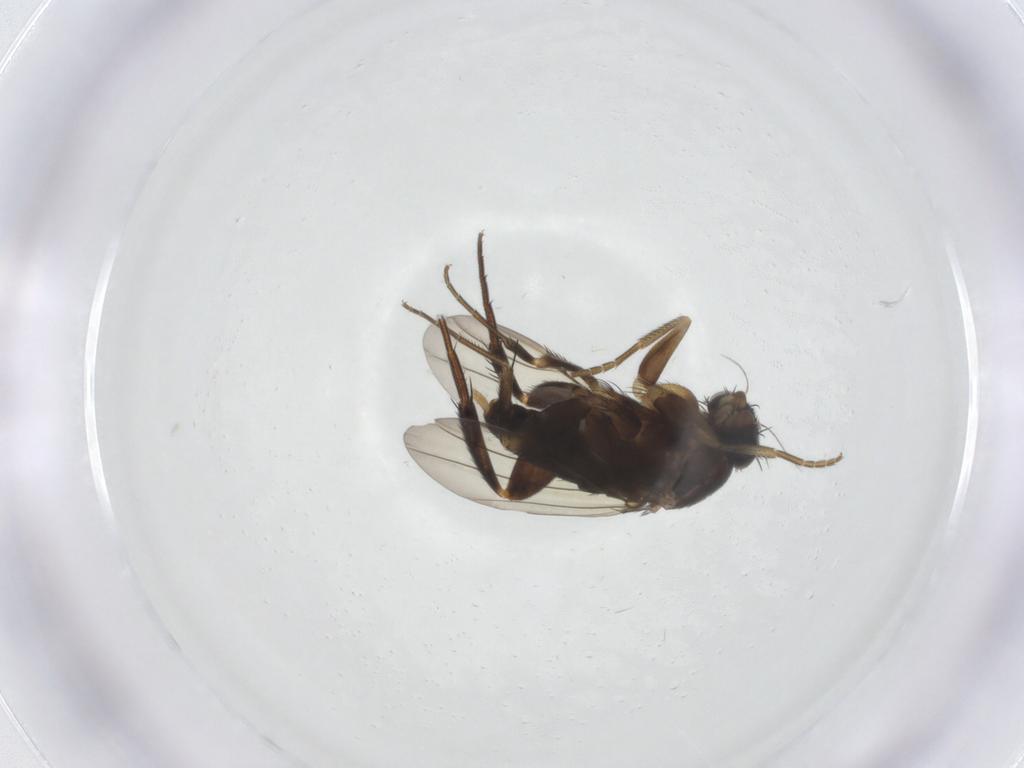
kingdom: Animalia
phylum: Arthropoda
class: Insecta
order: Diptera
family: Phoridae
